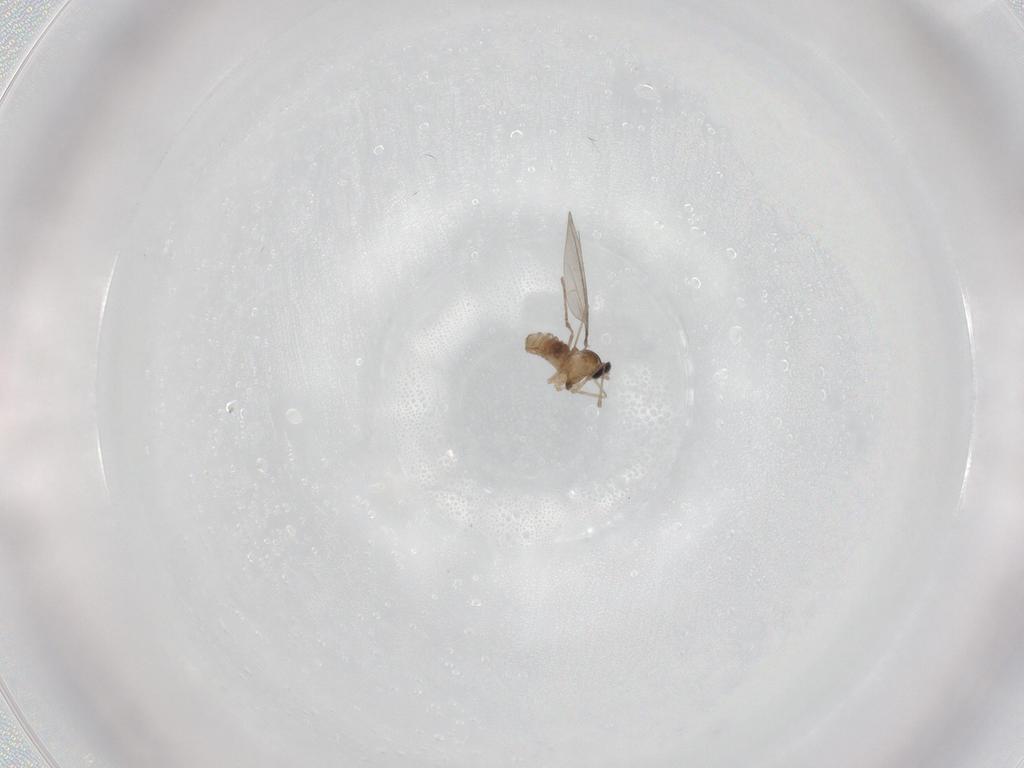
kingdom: Animalia
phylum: Arthropoda
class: Insecta
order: Diptera
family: Cecidomyiidae
